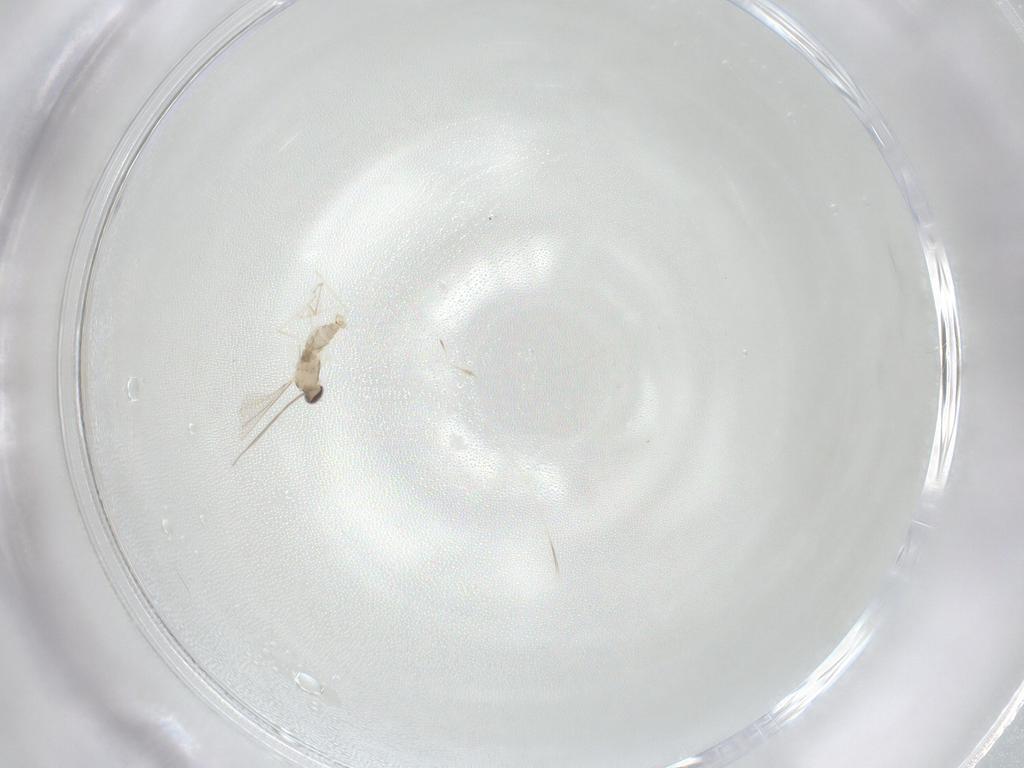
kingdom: Animalia
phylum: Arthropoda
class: Insecta
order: Diptera
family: Cecidomyiidae
